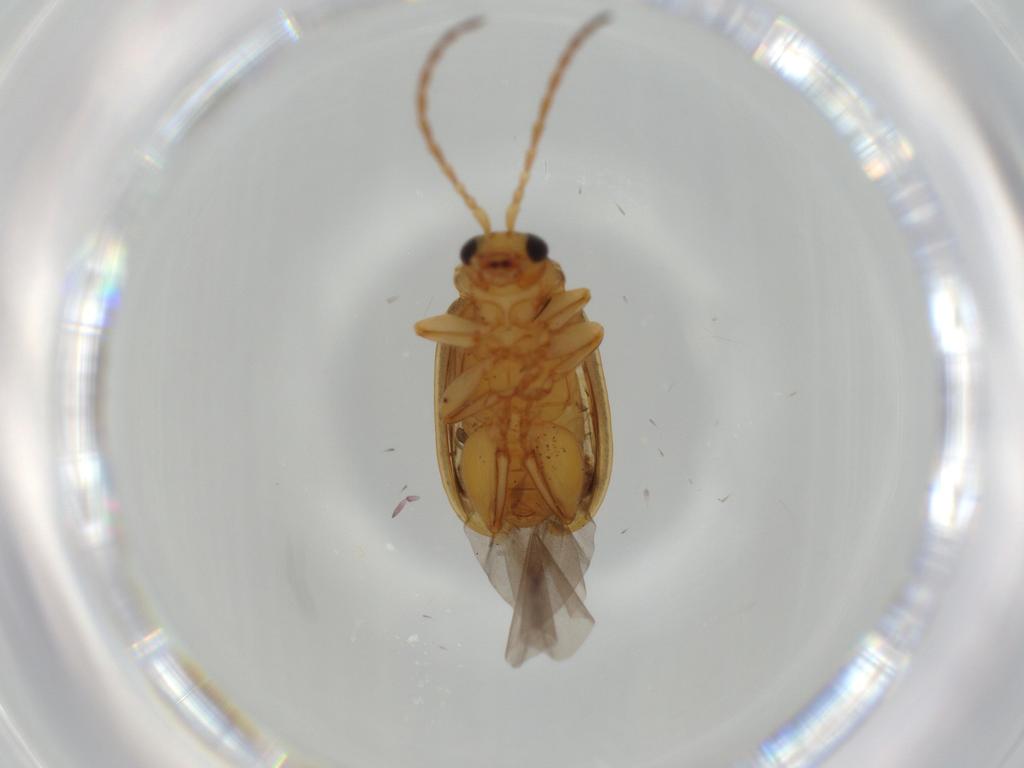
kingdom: Animalia
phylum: Arthropoda
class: Insecta
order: Coleoptera
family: Chrysomelidae
